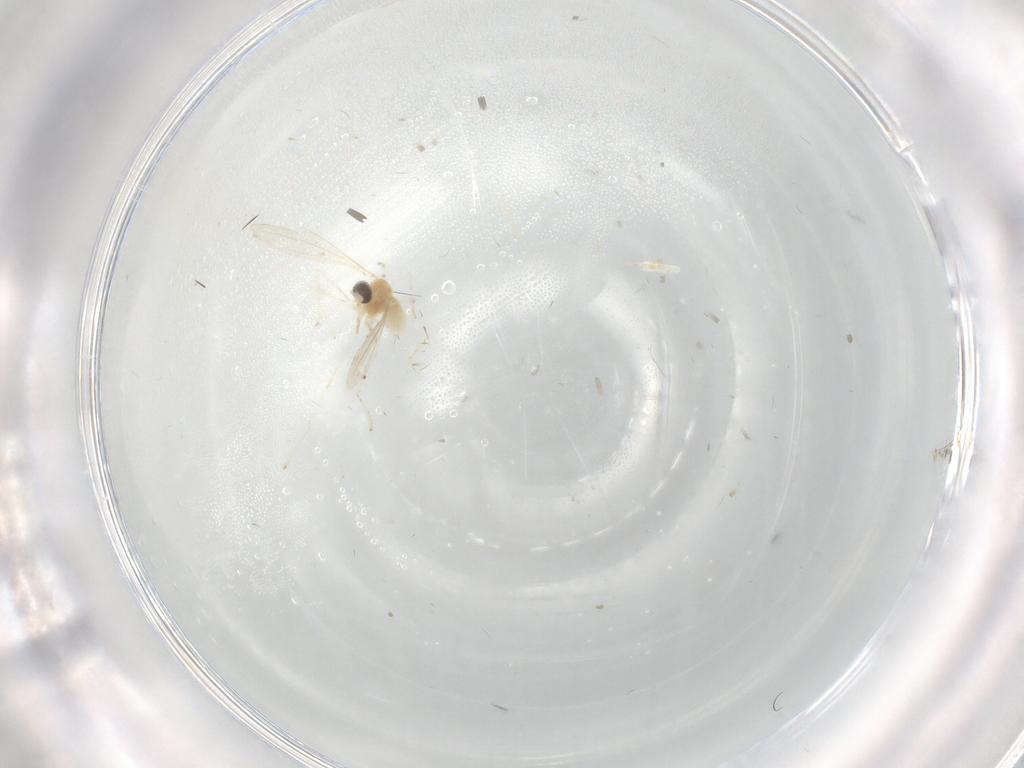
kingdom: Animalia
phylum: Arthropoda
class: Insecta
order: Diptera
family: Cecidomyiidae
